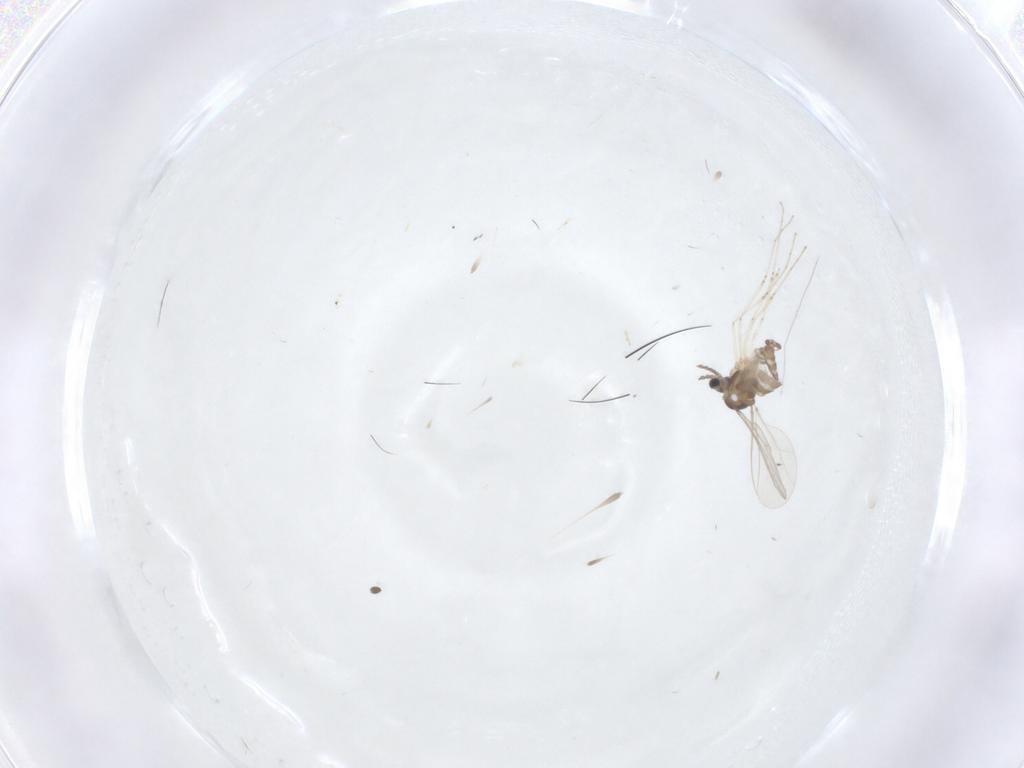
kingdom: Animalia
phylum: Arthropoda
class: Insecta
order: Diptera
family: Cecidomyiidae
